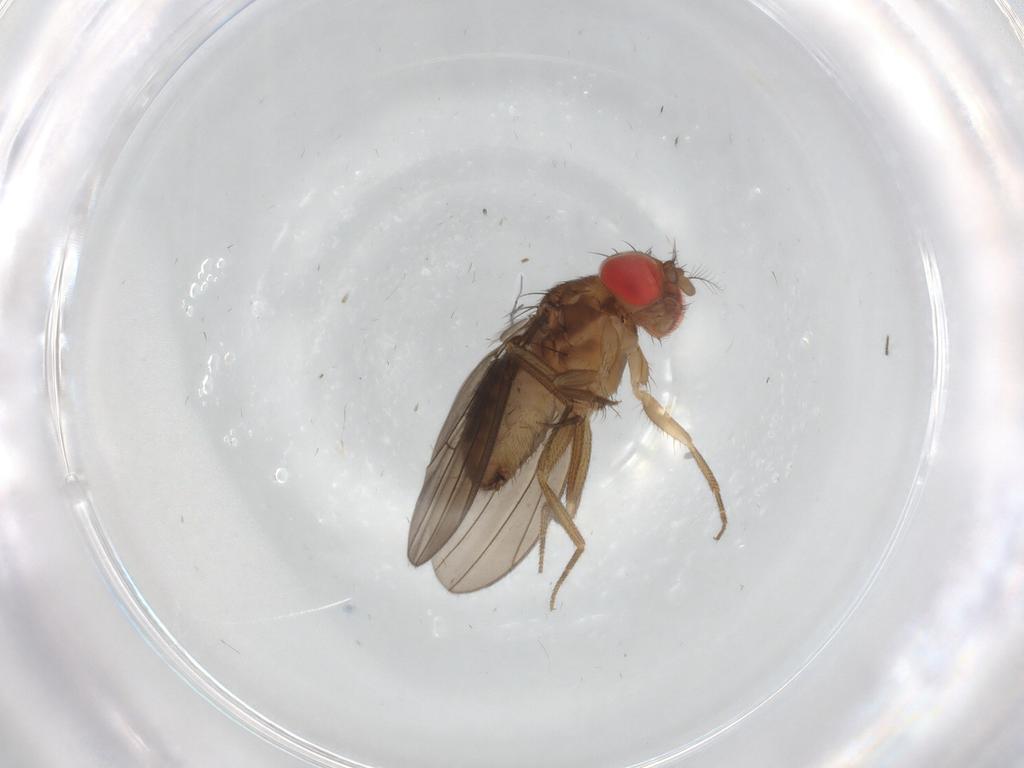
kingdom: Animalia
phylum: Arthropoda
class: Insecta
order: Diptera
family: Drosophilidae
